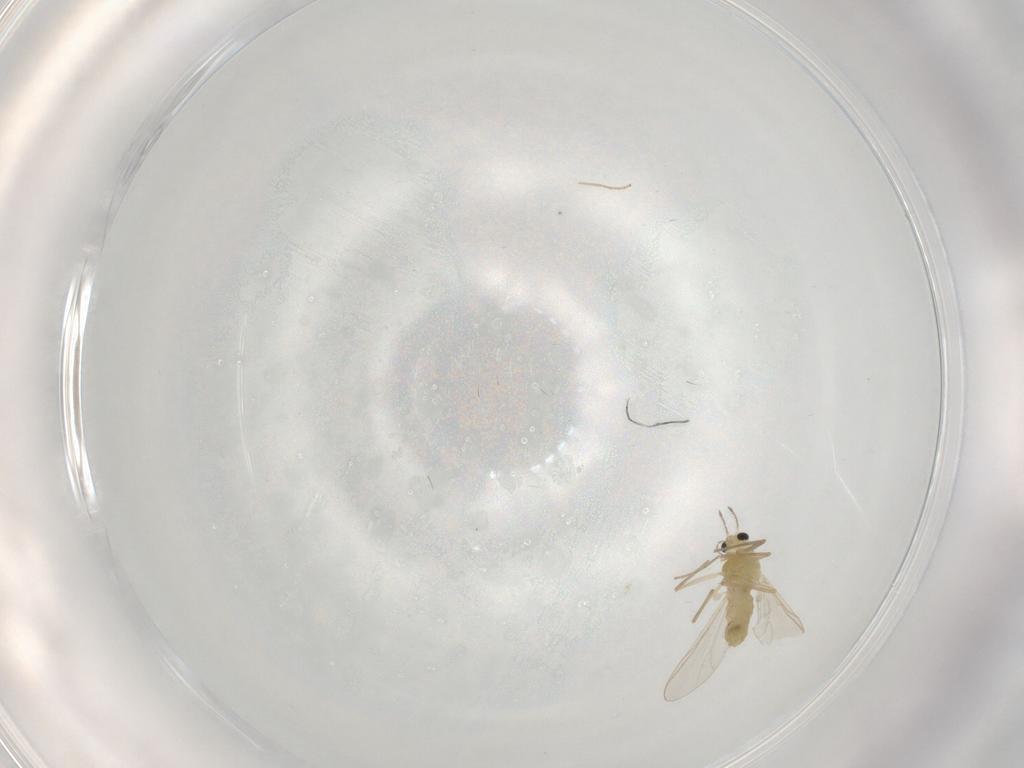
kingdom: Animalia
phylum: Arthropoda
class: Insecta
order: Diptera
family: Chironomidae
